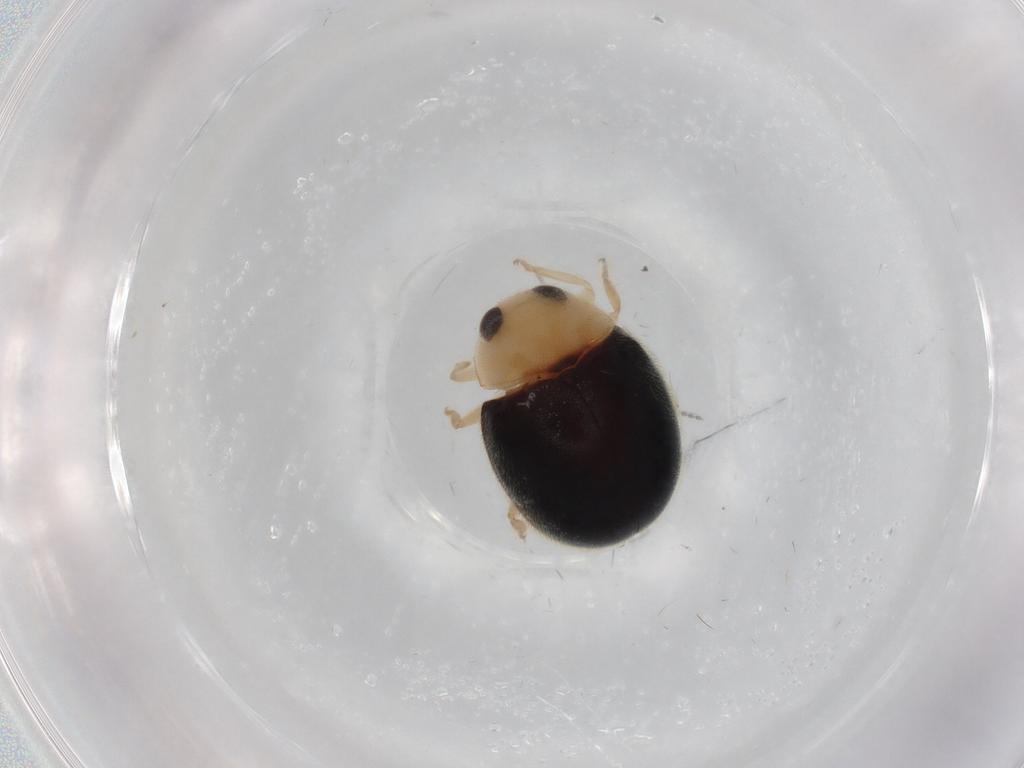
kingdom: Animalia
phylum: Arthropoda
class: Insecta
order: Coleoptera
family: Coccinellidae
